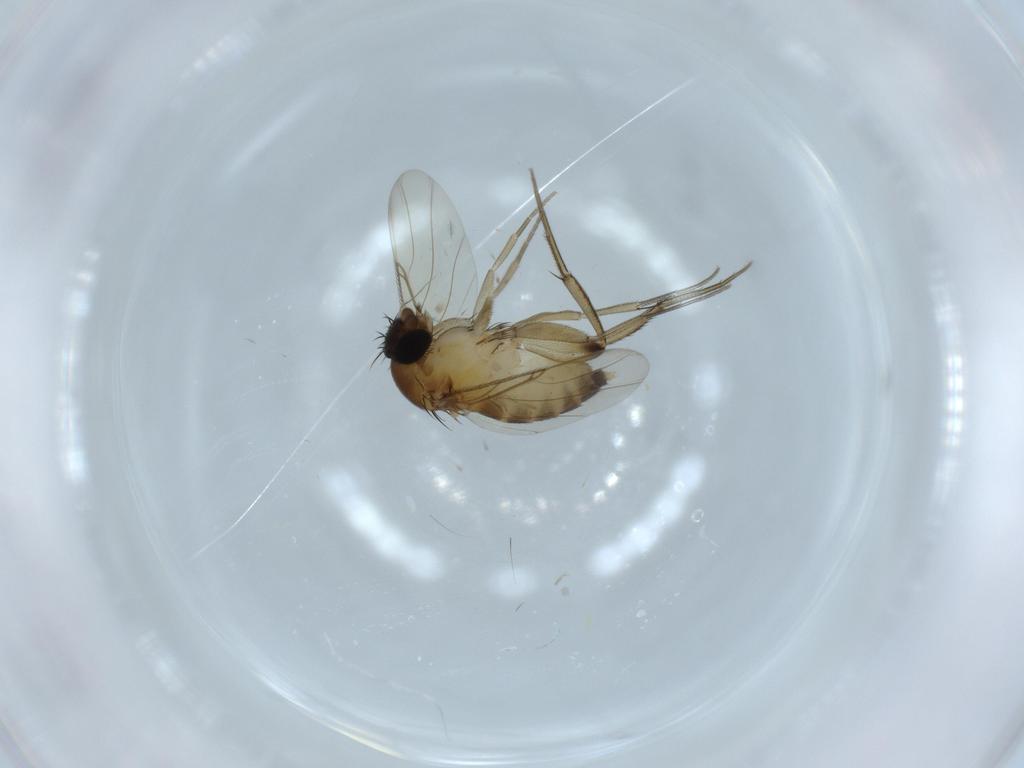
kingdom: Animalia
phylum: Arthropoda
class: Insecta
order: Diptera
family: Phoridae
